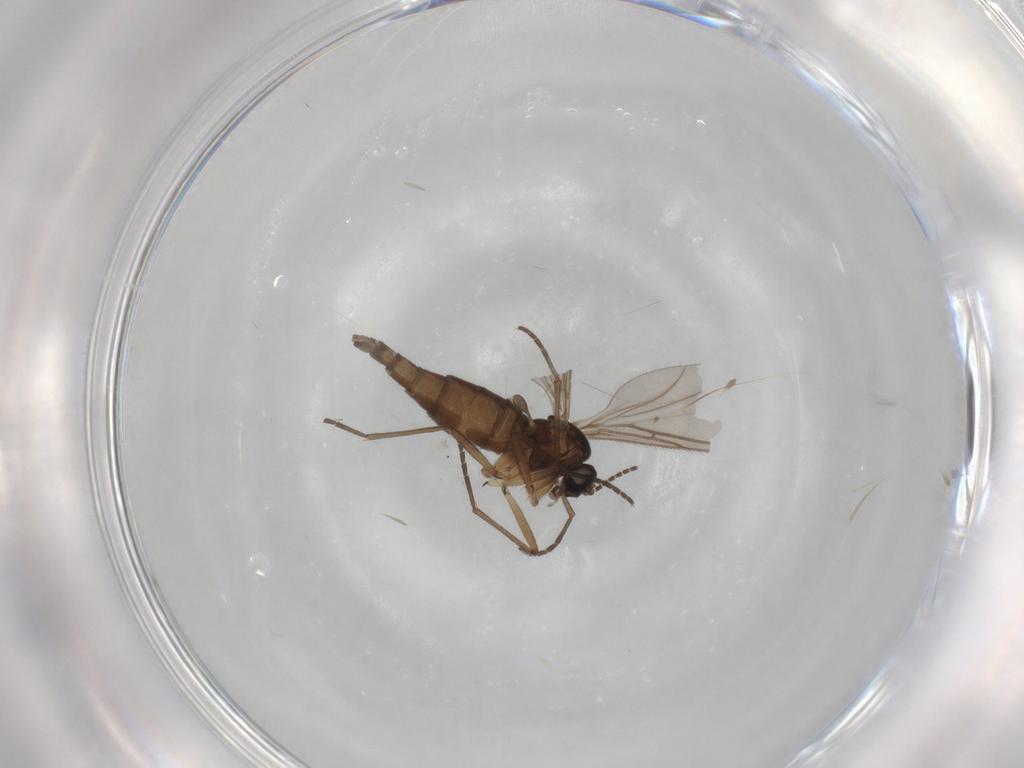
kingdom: Animalia
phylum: Arthropoda
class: Insecta
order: Diptera
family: Sciaridae
